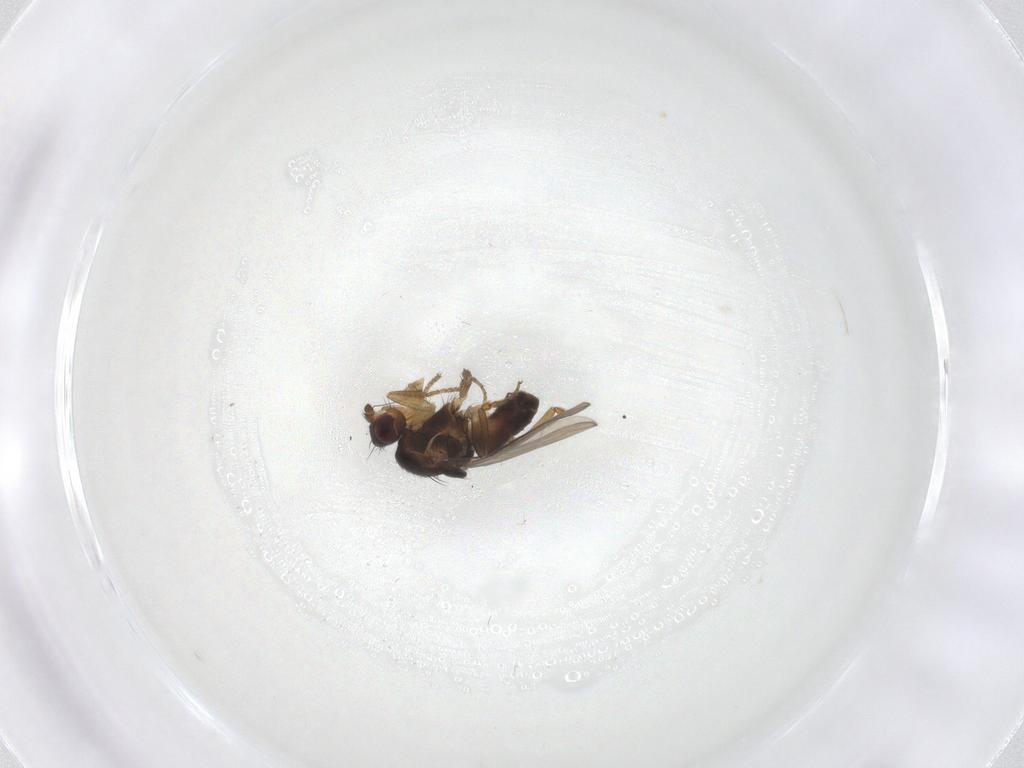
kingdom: Animalia
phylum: Arthropoda
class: Insecta
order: Diptera
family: Sphaeroceridae
